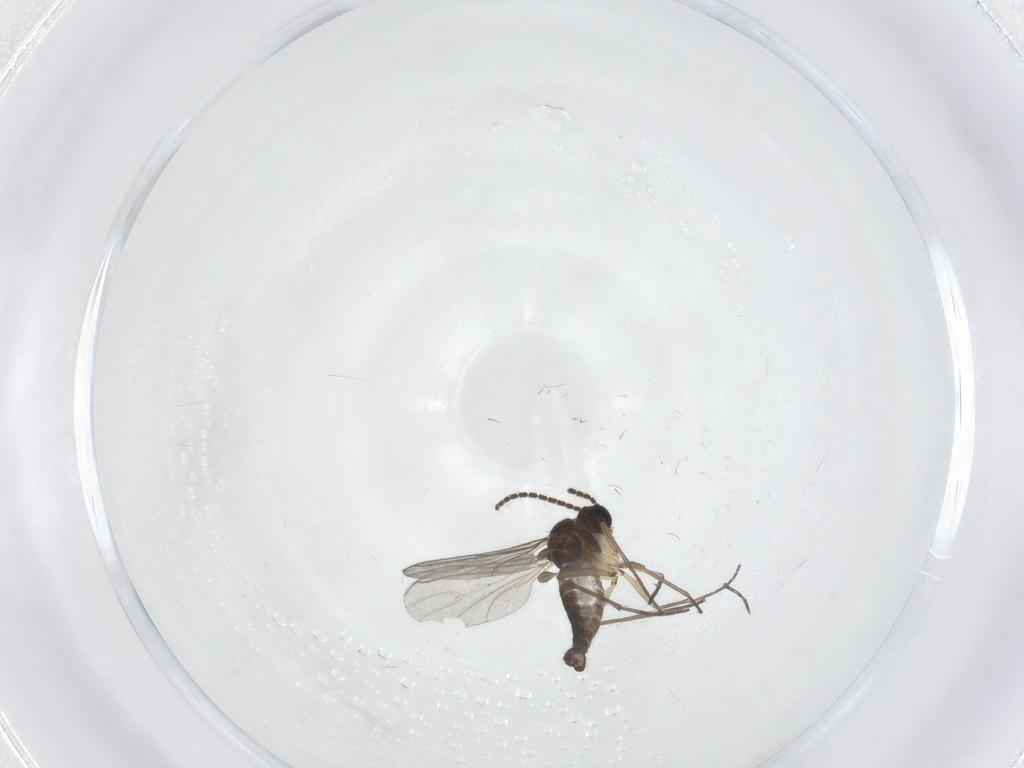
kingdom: Animalia
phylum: Arthropoda
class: Insecta
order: Diptera
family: Sciaridae
